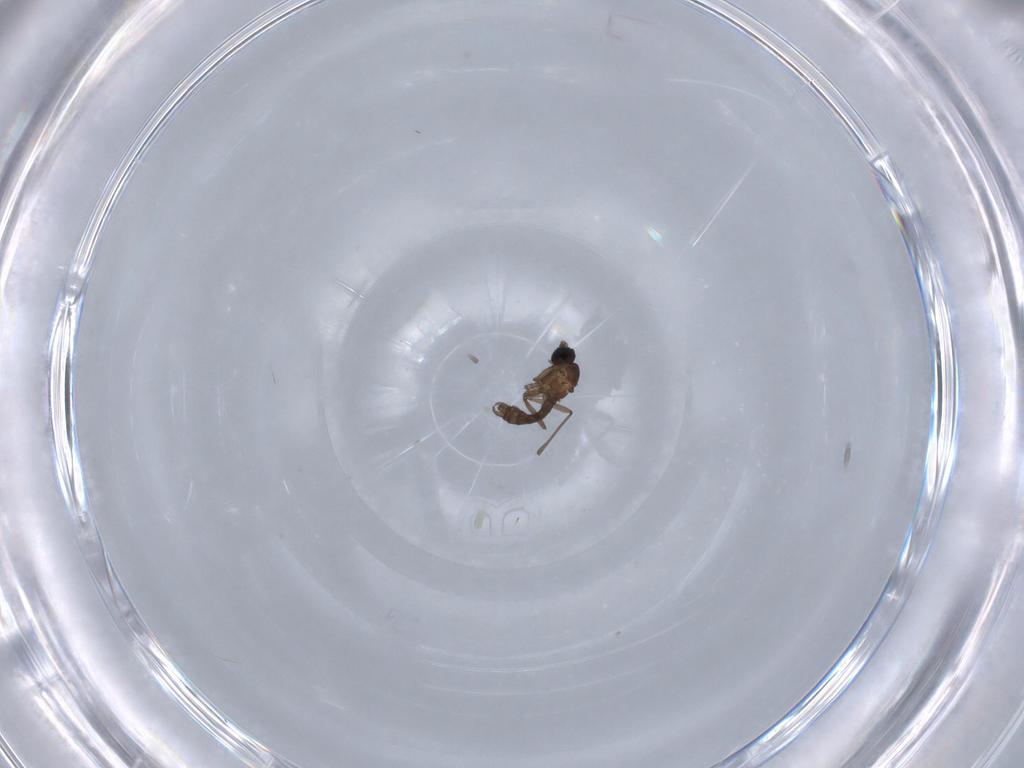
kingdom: Animalia
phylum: Arthropoda
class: Insecta
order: Diptera
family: Sciaridae
